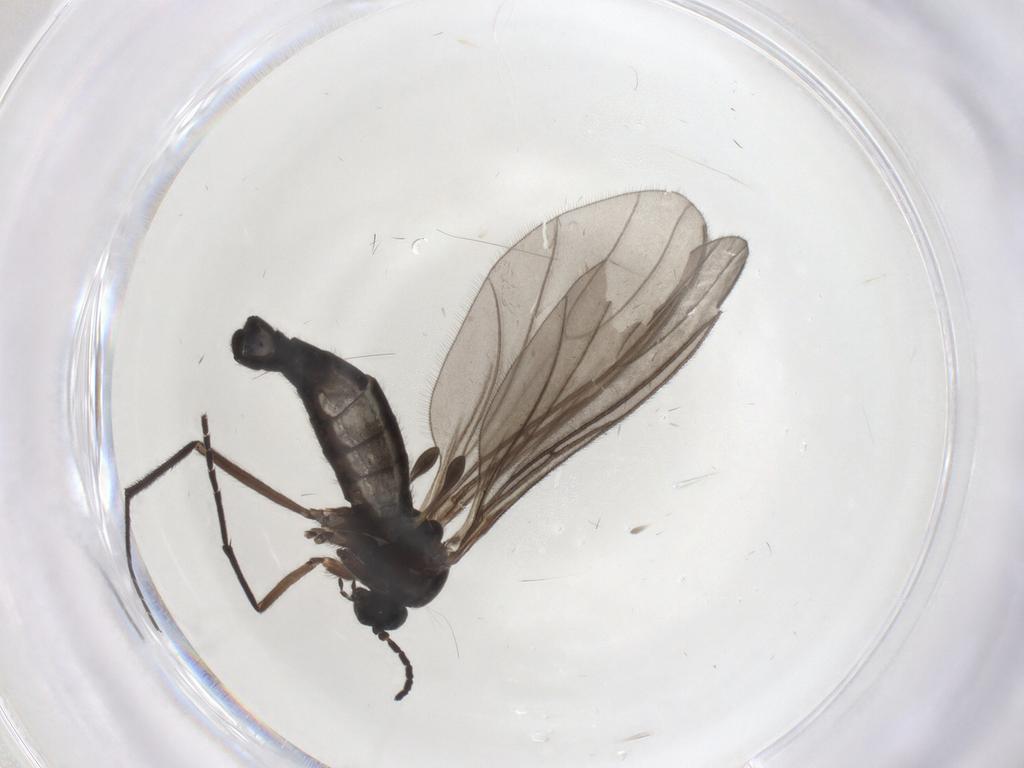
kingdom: Animalia
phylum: Arthropoda
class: Insecta
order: Diptera
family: Sciaridae
